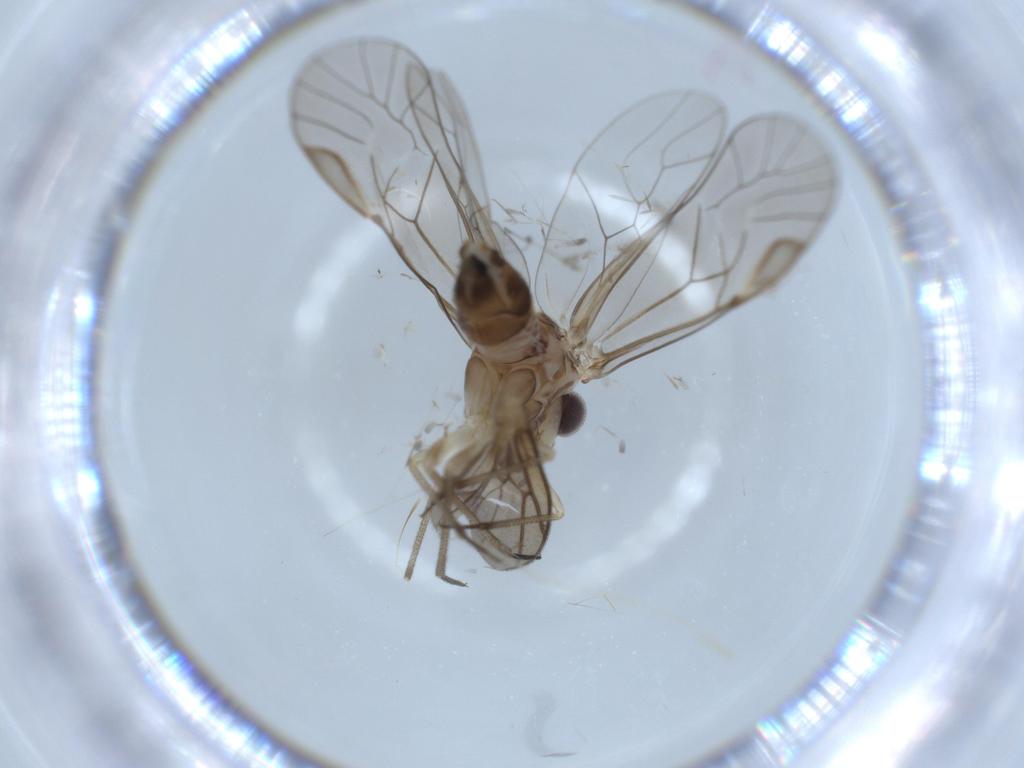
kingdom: Animalia
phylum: Arthropoda
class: Insecta
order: Psocodea
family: Psocidae
